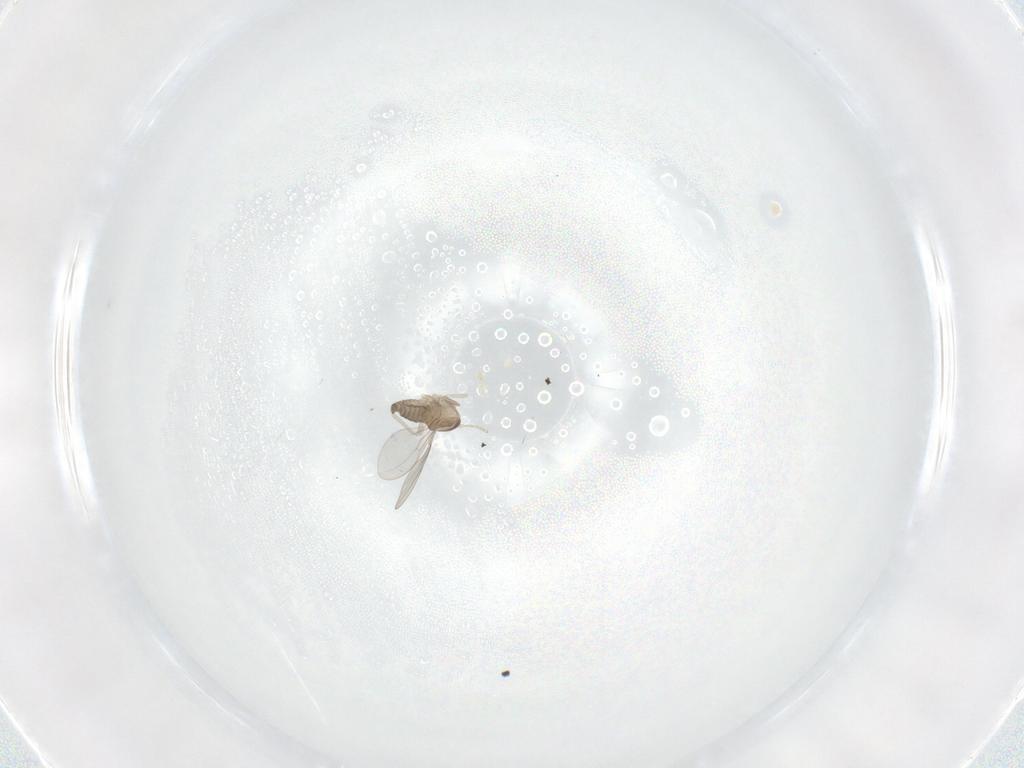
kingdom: Animalia
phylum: Arthropoda
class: Insecta
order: Diptera
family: Cecidomyiidae
